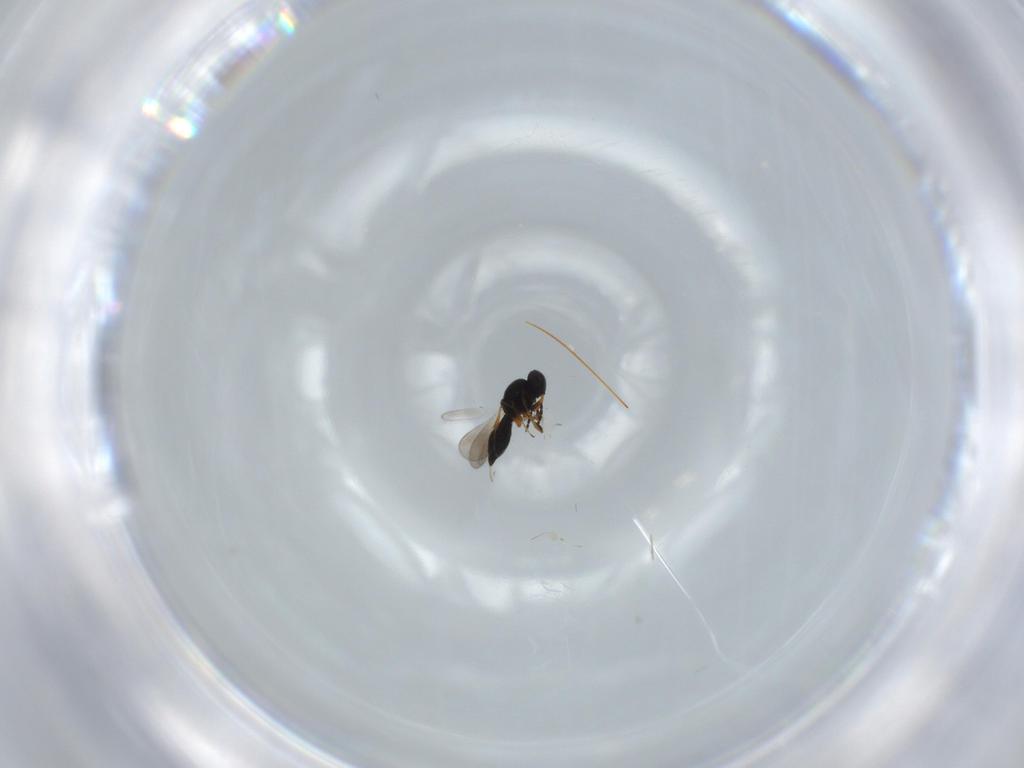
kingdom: Animalia
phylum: Arthropoda
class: Insecta
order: Hymenoptera
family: Platygastridae
